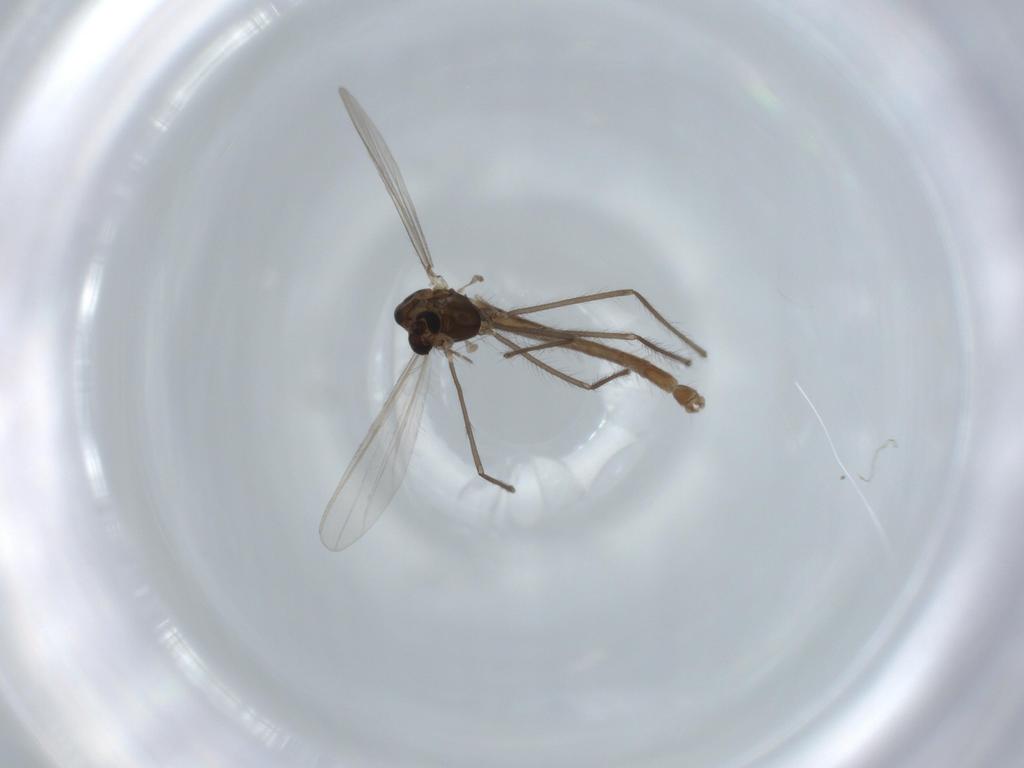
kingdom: Animalia
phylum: Arthropoda
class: Insecta
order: Diptera
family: Chironomidae
